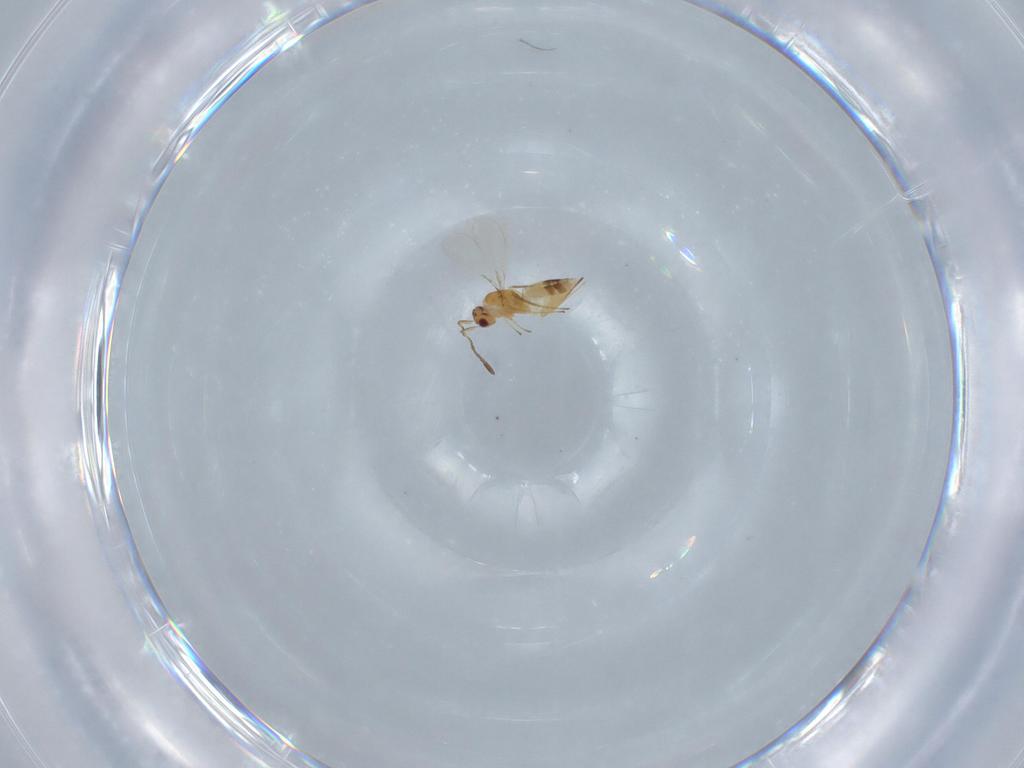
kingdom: Animalia
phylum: Arthropoda
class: Insecta
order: Hymenoptera
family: Mymaridae
